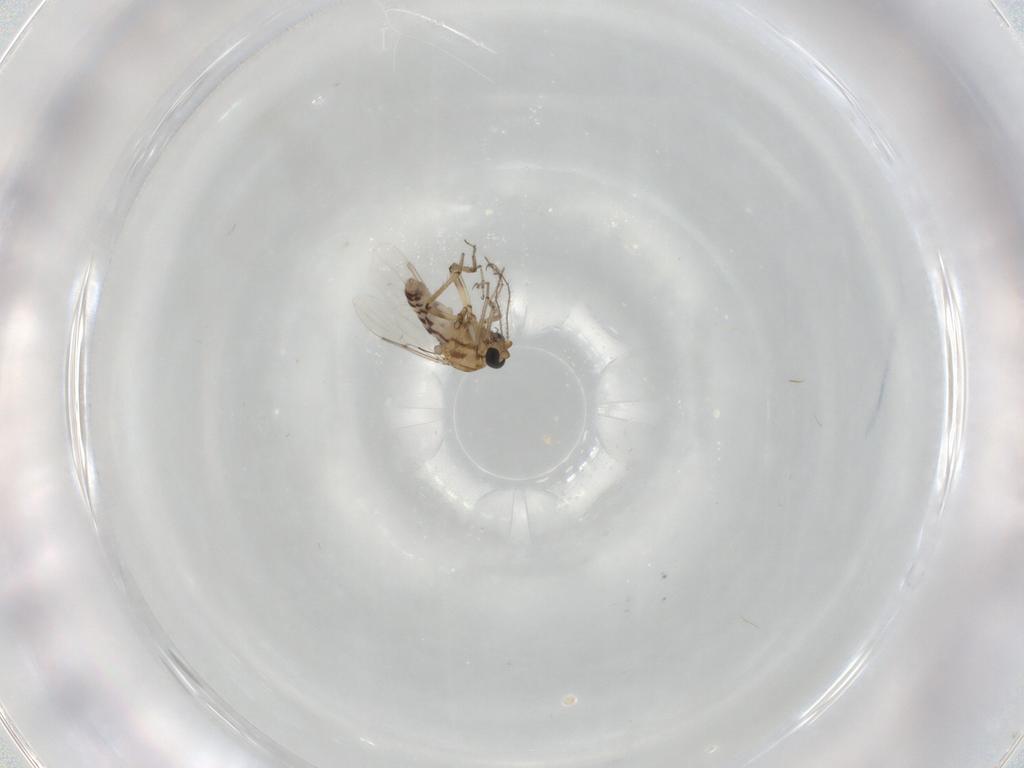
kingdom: Animalia
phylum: Arthropoda
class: Insecta
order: Diptera
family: Ceratopogonidae
